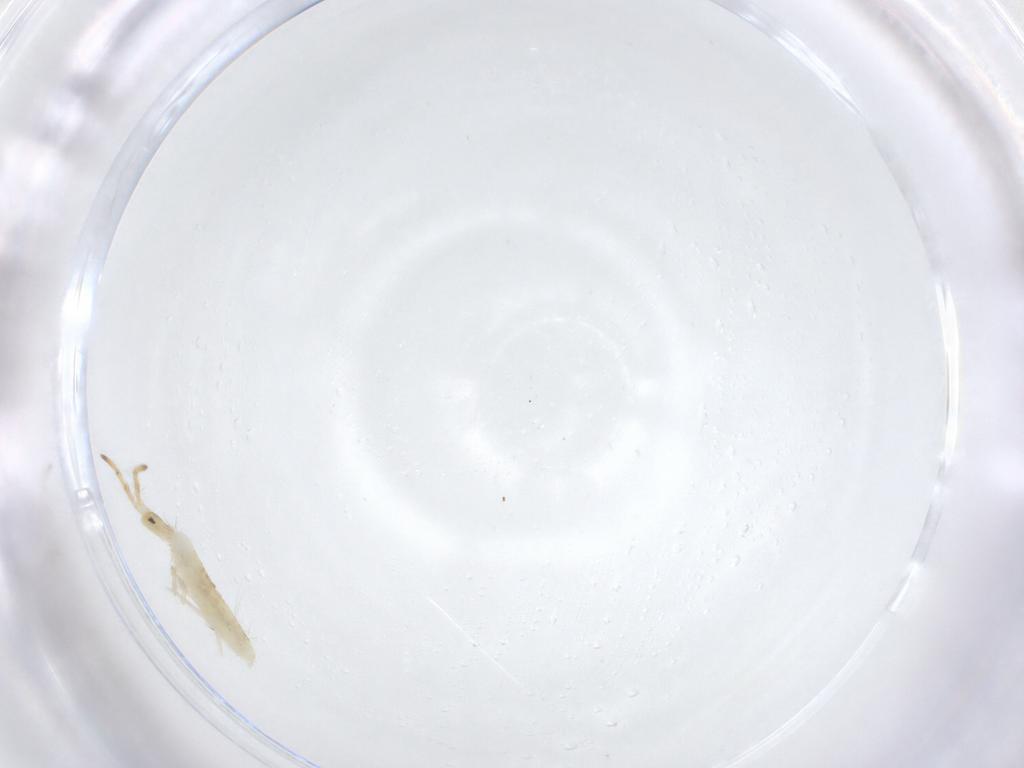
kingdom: Animalia
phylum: Arthropoda
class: Collembola
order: Entomobryomorpha
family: Entomobryidae
